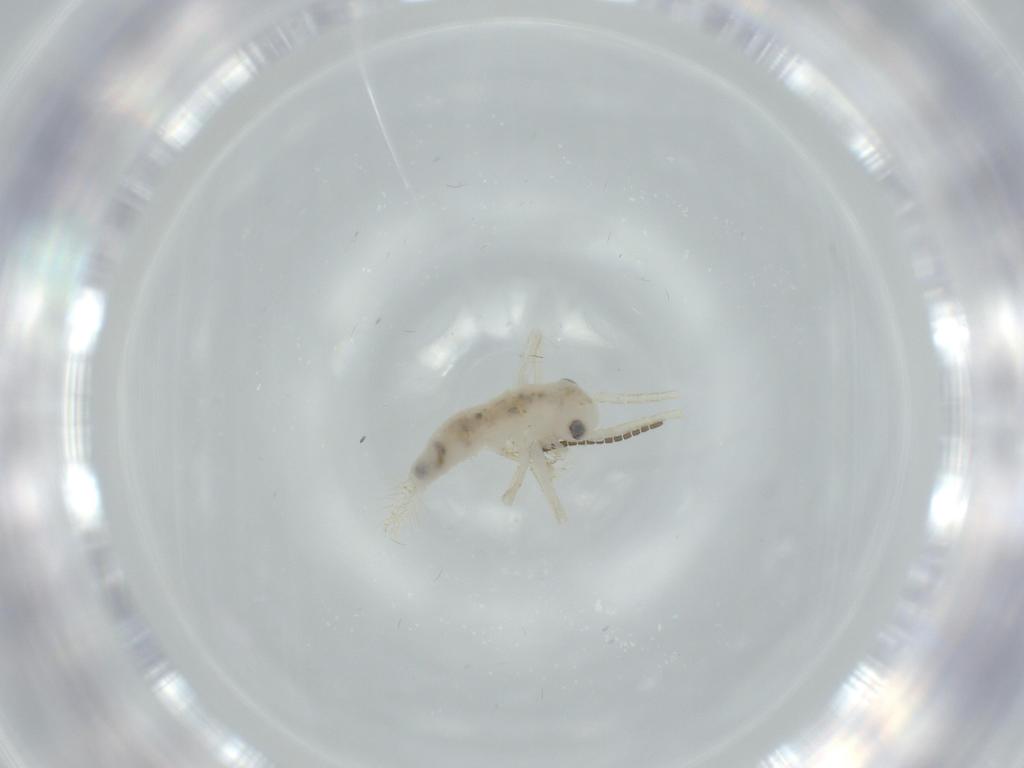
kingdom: Animalia
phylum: Arthropoda
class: Insecta
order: Orthoptera
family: Trigonidiidae
